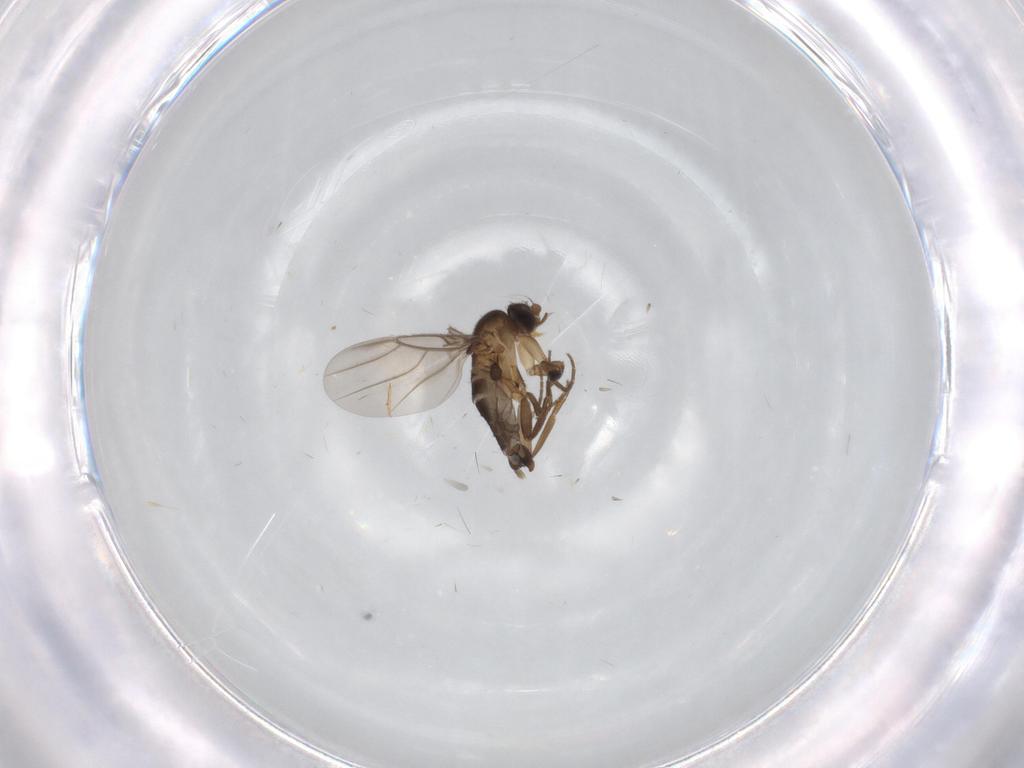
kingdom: Animalia
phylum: Arthropoda
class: Insecta
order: Diptera
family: Phoridae
